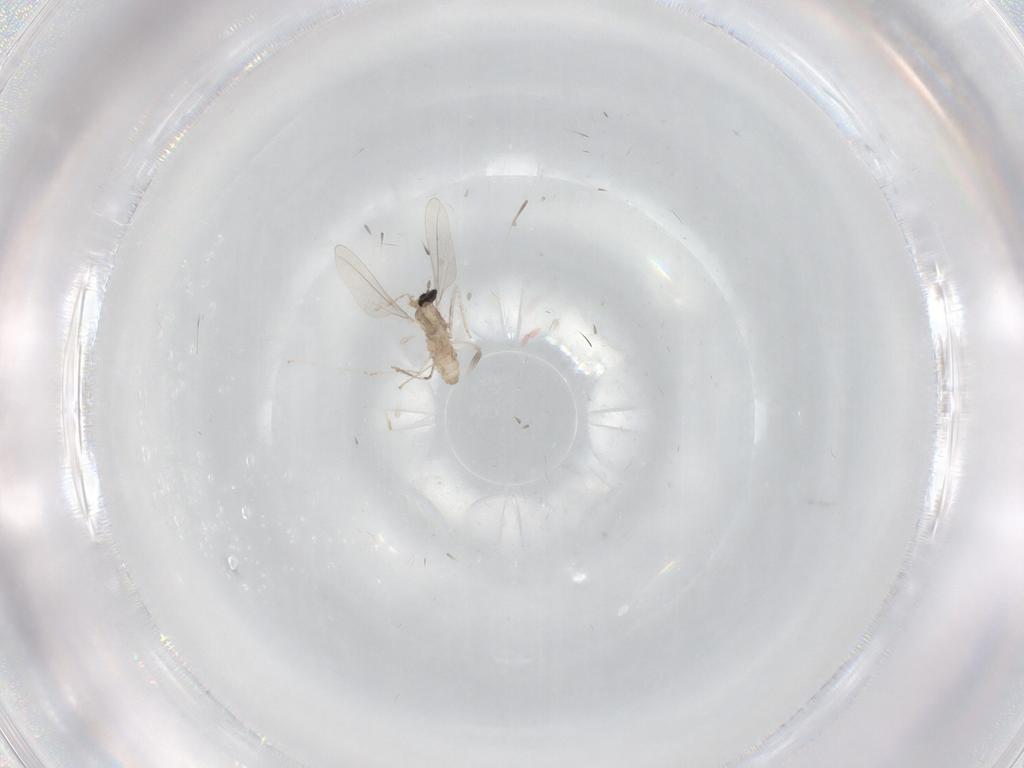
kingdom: Animalia
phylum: Arthropoda
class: Insecta
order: Diptera
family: Cecidomyiidae
